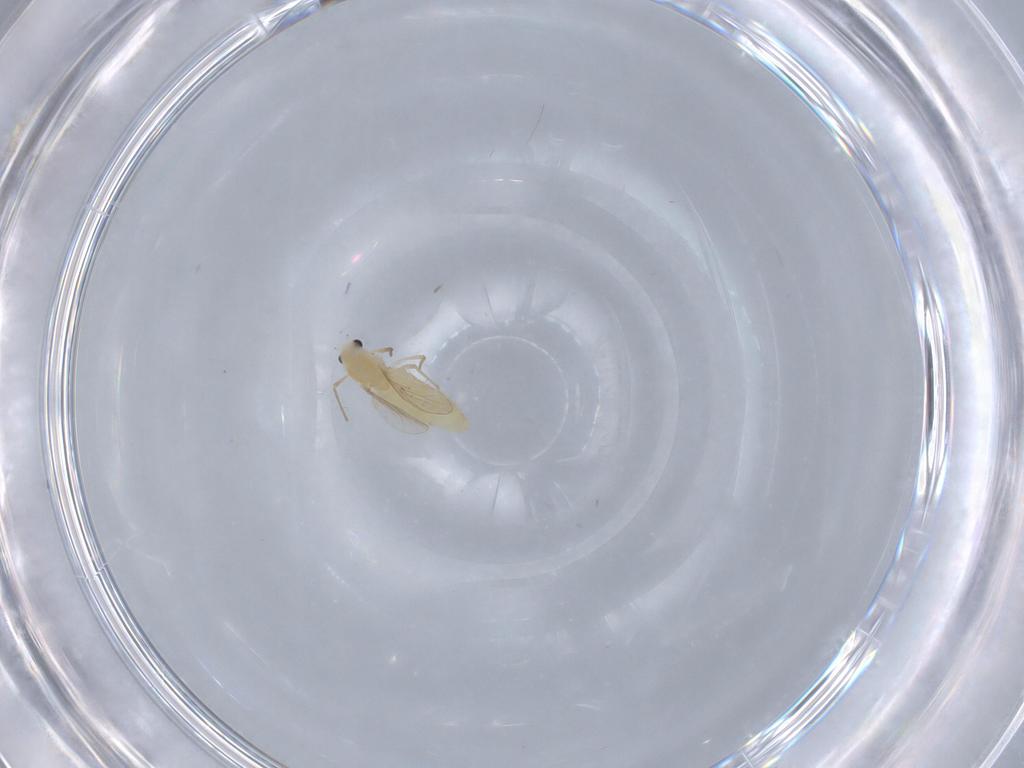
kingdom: Animalia
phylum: Arthropoda
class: Insecta
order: Diptera
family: Chironomidae
